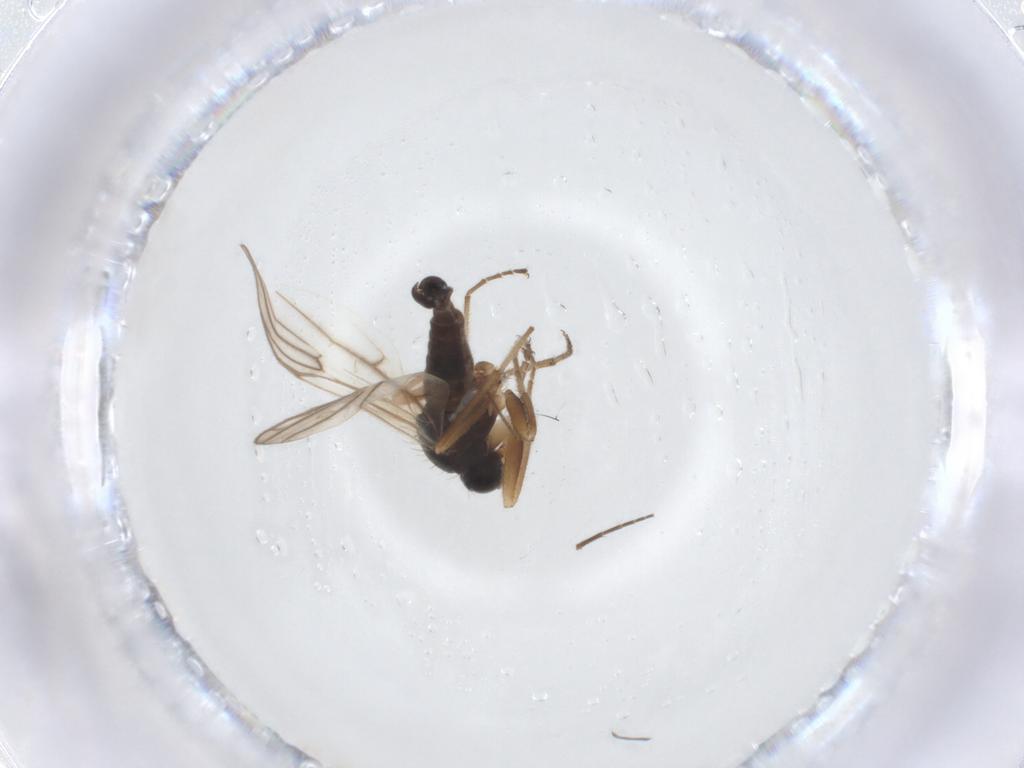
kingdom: Animalia
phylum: Arthropoda
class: Insecta
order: Diptera
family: Hybotidae
